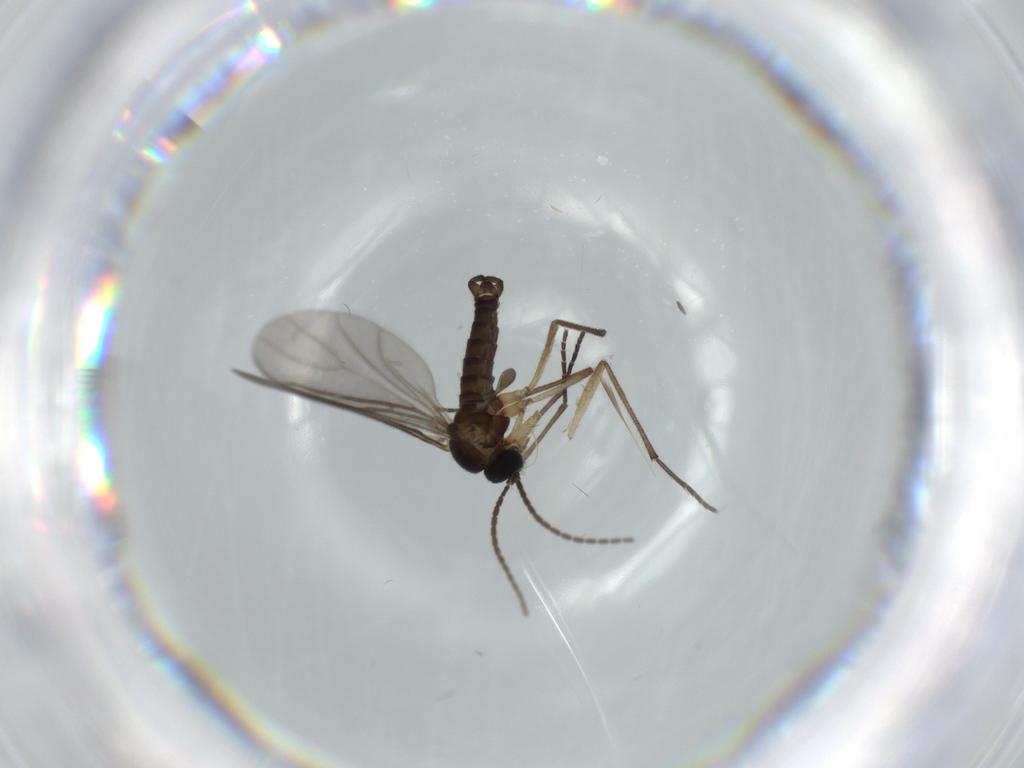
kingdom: Animalia
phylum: Arthropoda
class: Insecta
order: Diptera
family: Sciaridae
